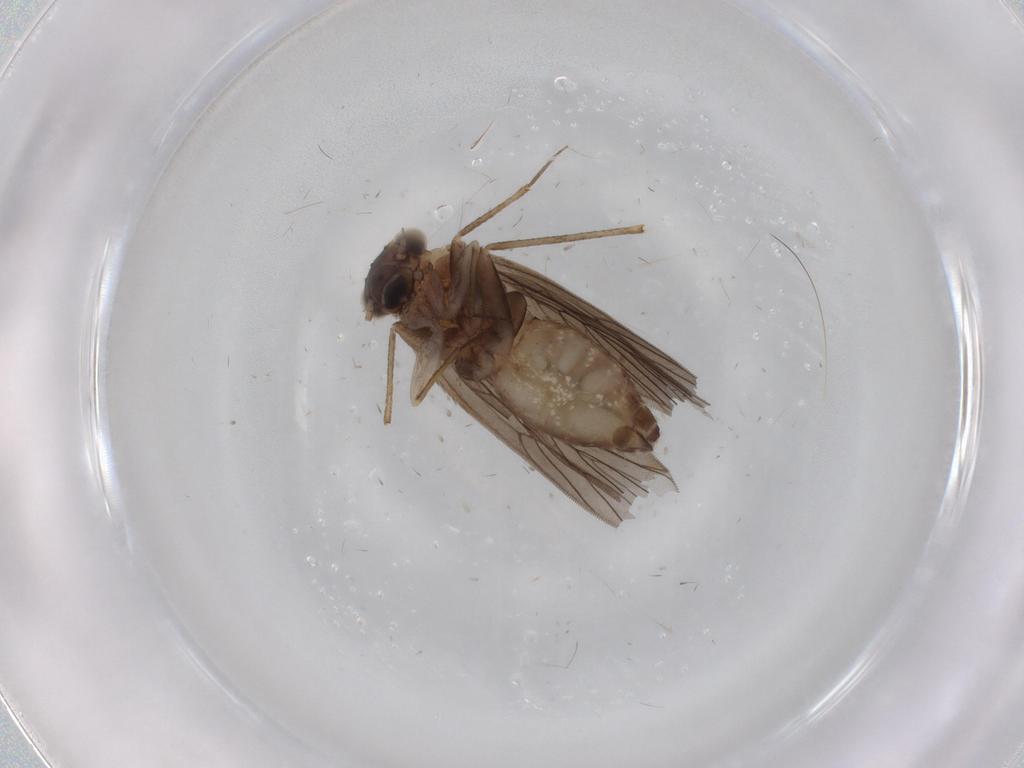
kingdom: Animalia
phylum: Arthropoda
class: Insecta
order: Psocodea
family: Lepidopsocidae
